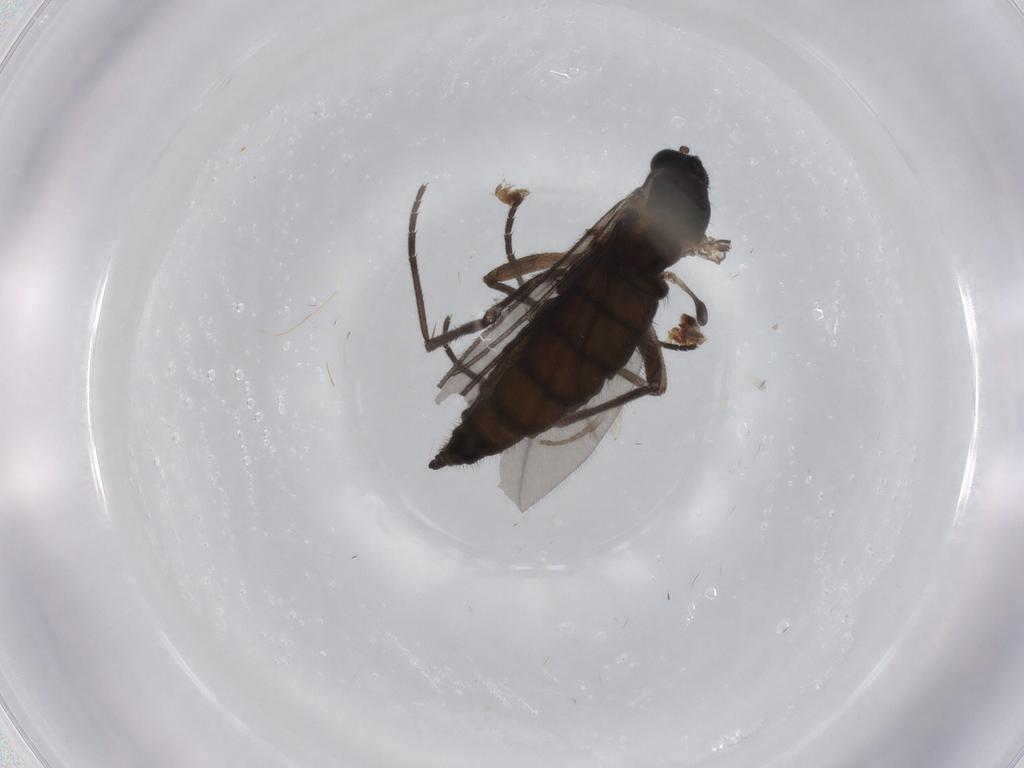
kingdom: Animalia
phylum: Arthropoda
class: Insecta
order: Diptera
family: Sciaridae
